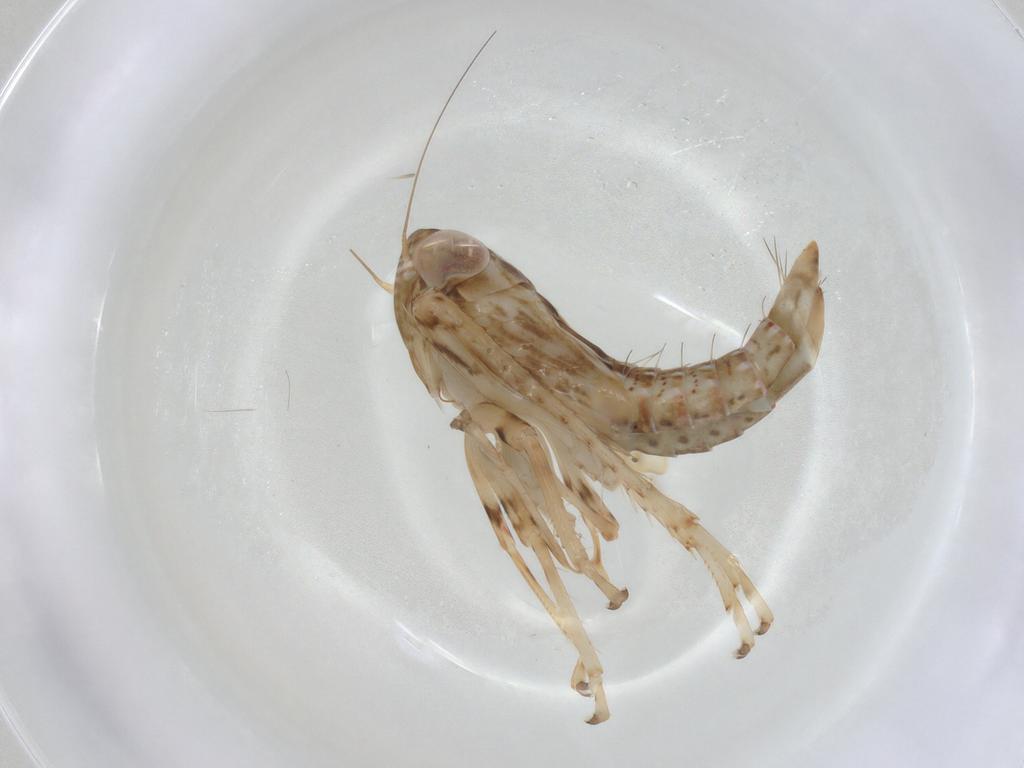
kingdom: Animalia
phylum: Arthropoda
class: Insecta
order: Hemiptera
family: Cicadellidae
